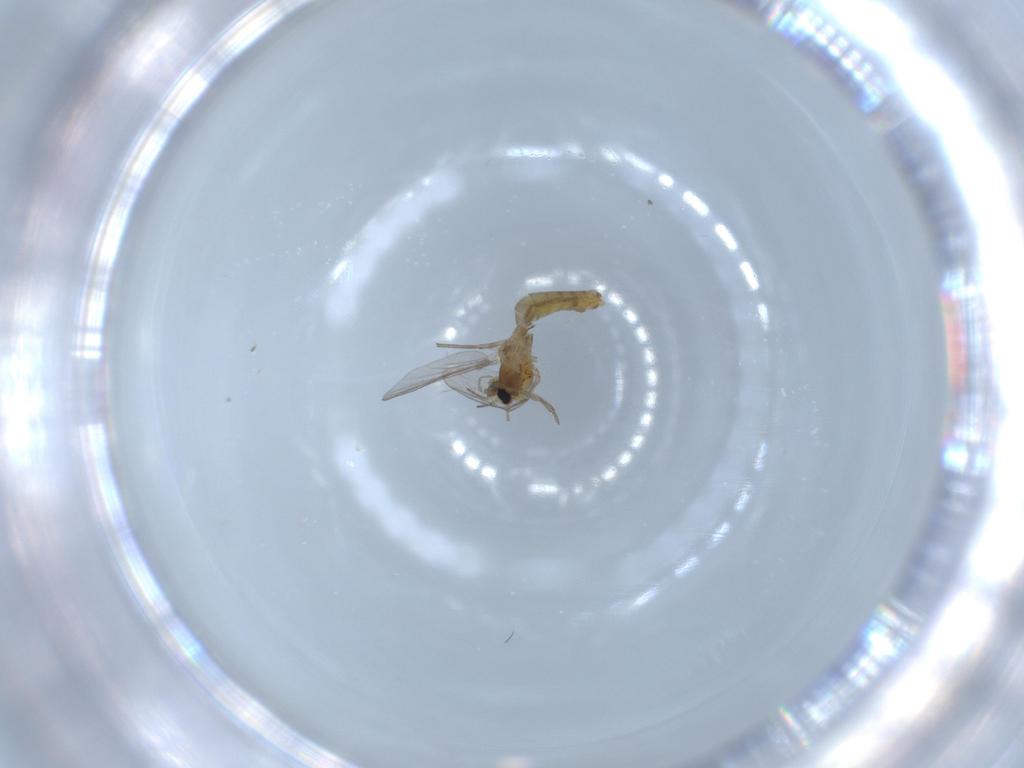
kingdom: Animalia
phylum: Arthropoda
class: Insecta
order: Diptera
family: Chironomidae
